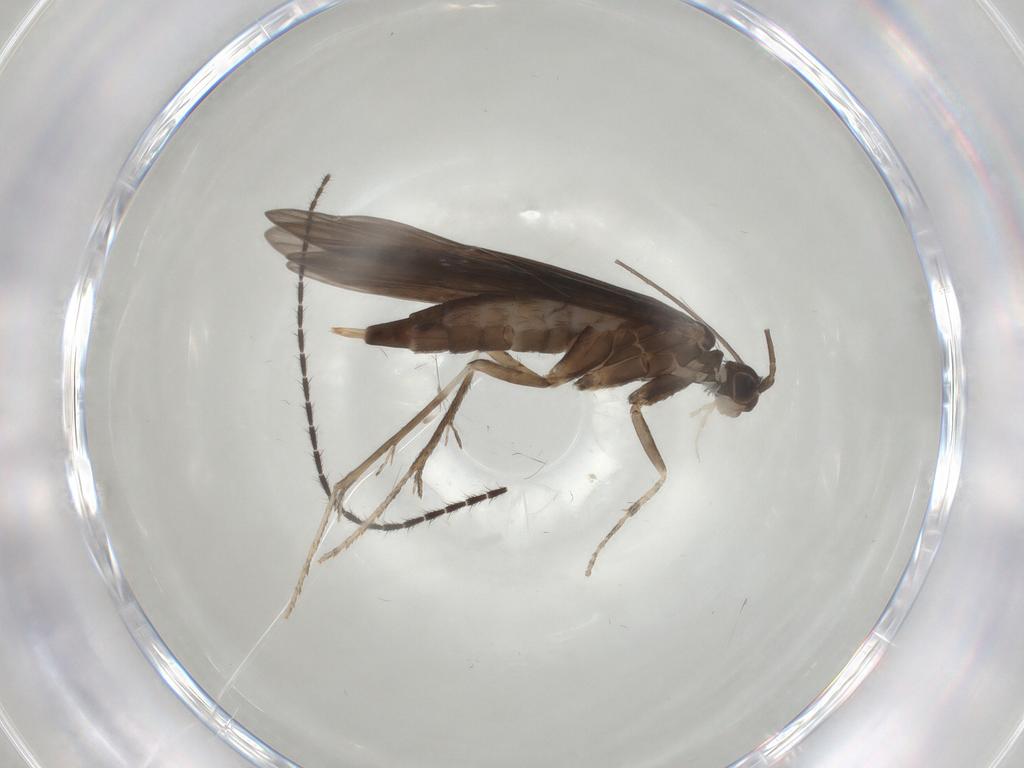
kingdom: Animalia
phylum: Arthropoda
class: Insecta
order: Trichoptera
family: Xiphocentronidae
